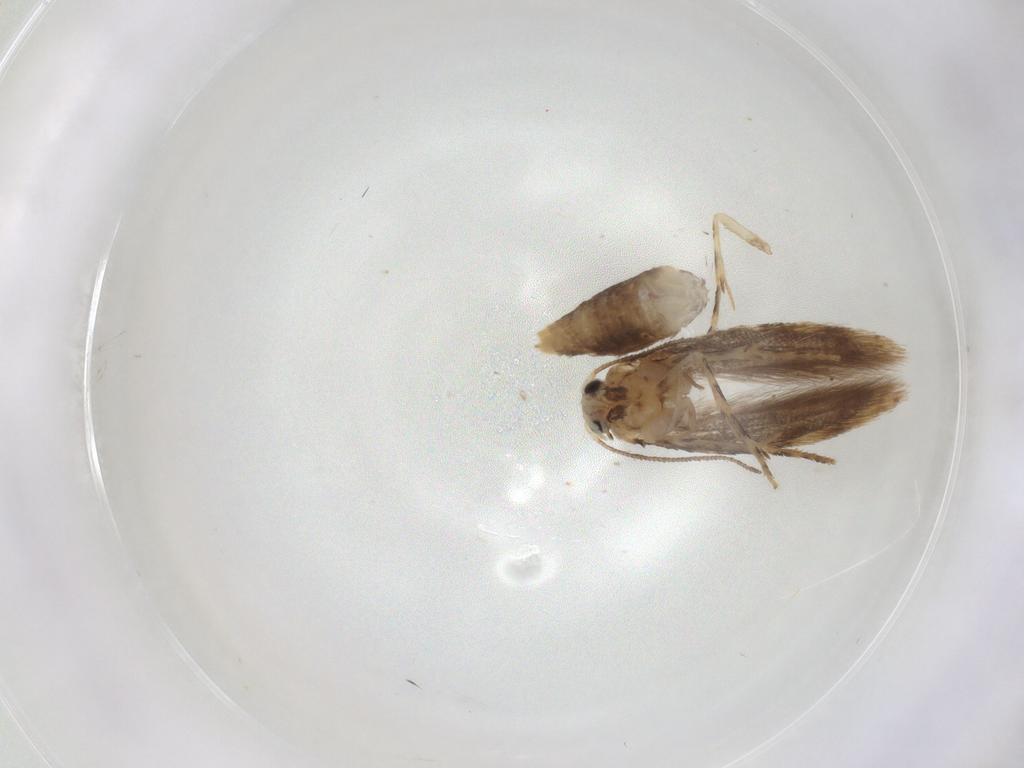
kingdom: Animalia
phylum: Arthropoda
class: Insecta
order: Lepidoptera
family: Tineidae
